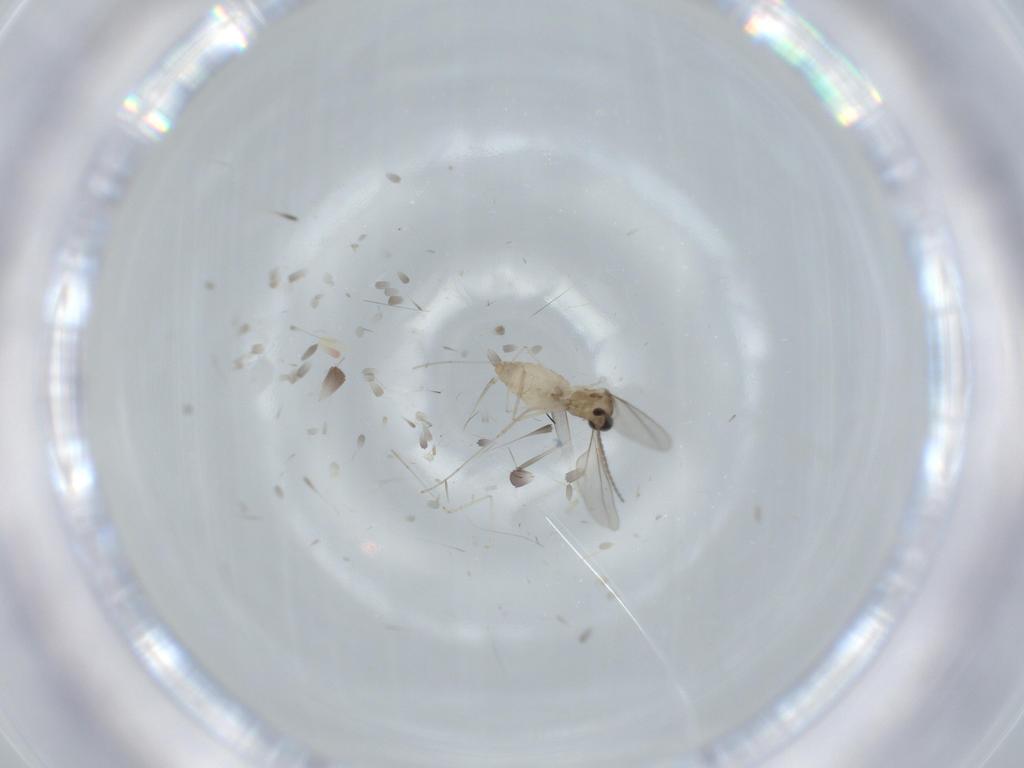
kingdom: Animalia
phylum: Arthropoda
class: Insecta
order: Diptera
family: Cecidomyiidae
